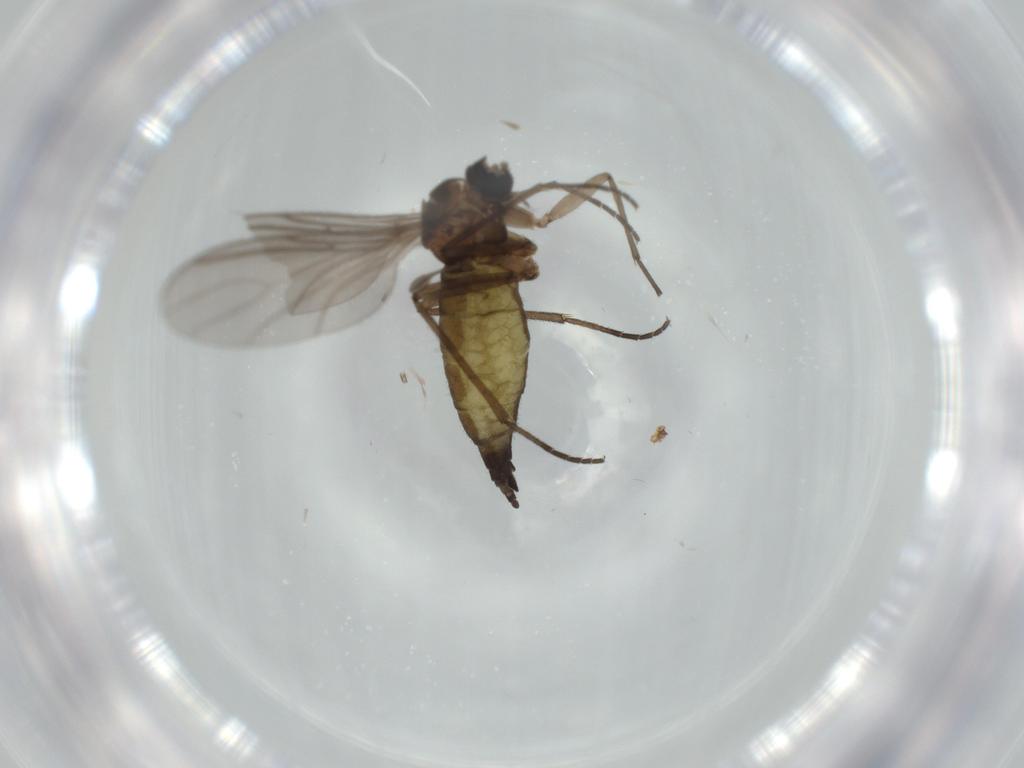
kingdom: Animalia
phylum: Arthropoda
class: Insecta
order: Diptera
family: Sciaridae
